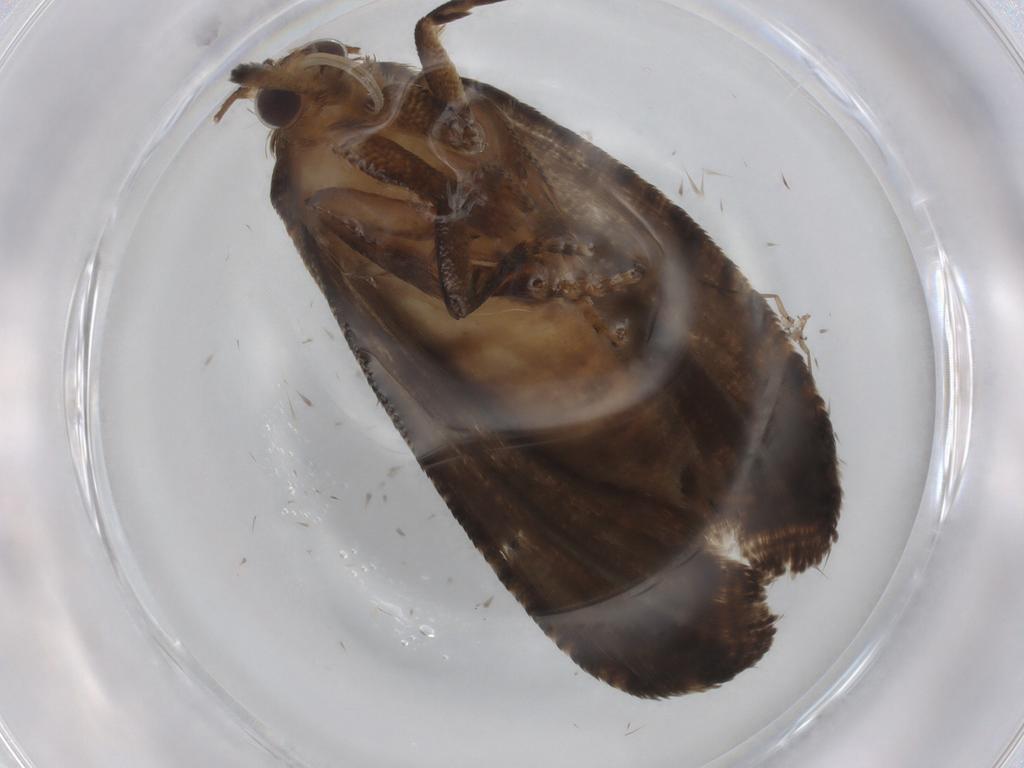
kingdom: Animalia
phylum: Arthropoda
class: Insecta
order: Lepidoptera
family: Tortricidae
